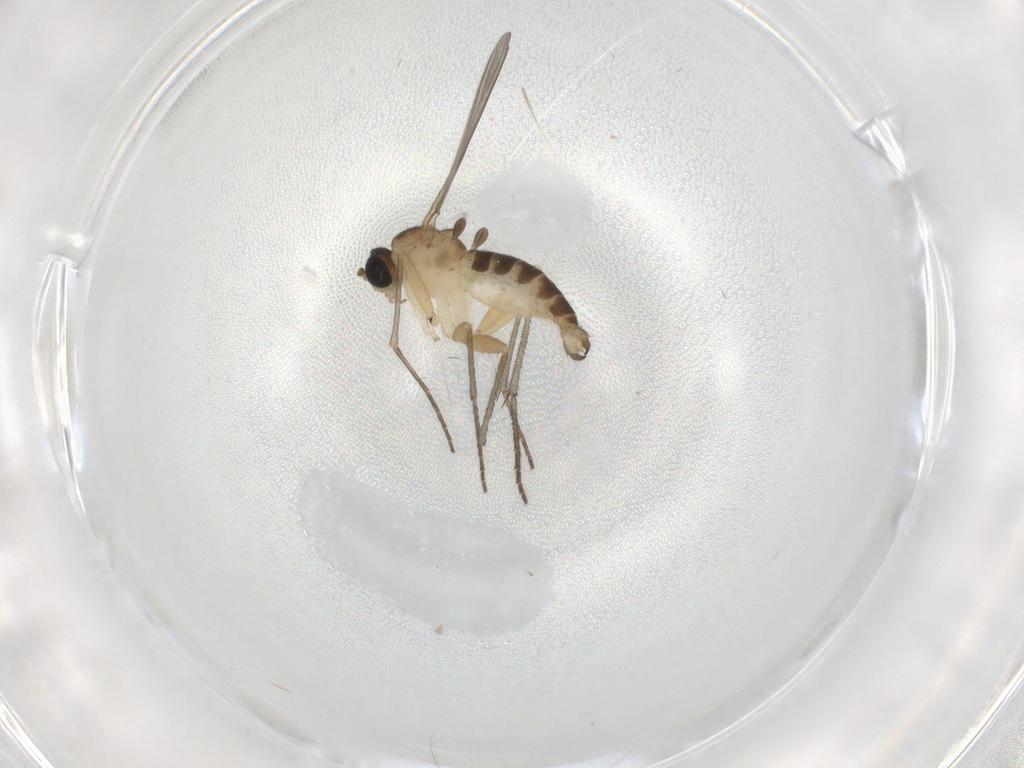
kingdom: Animalia
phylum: Arthropoda
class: Insecta
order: Diptera
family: Sciaridae
